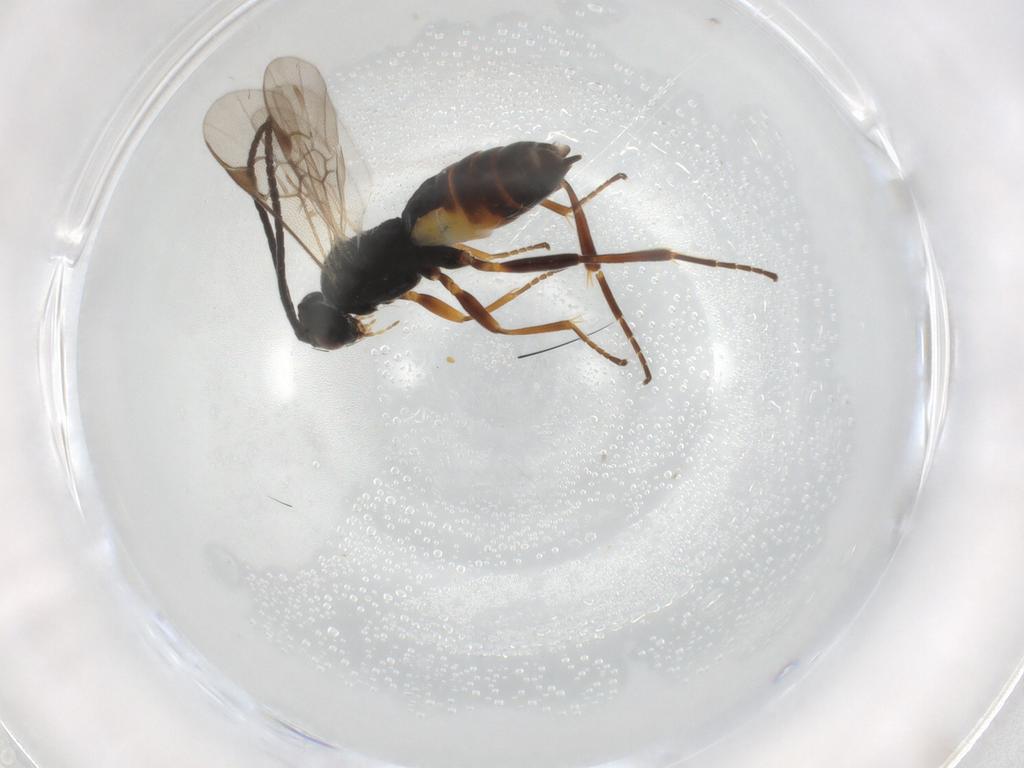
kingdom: Animalia
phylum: Arthropoda
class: Insecta
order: Hymenoptera
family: Braconidae
